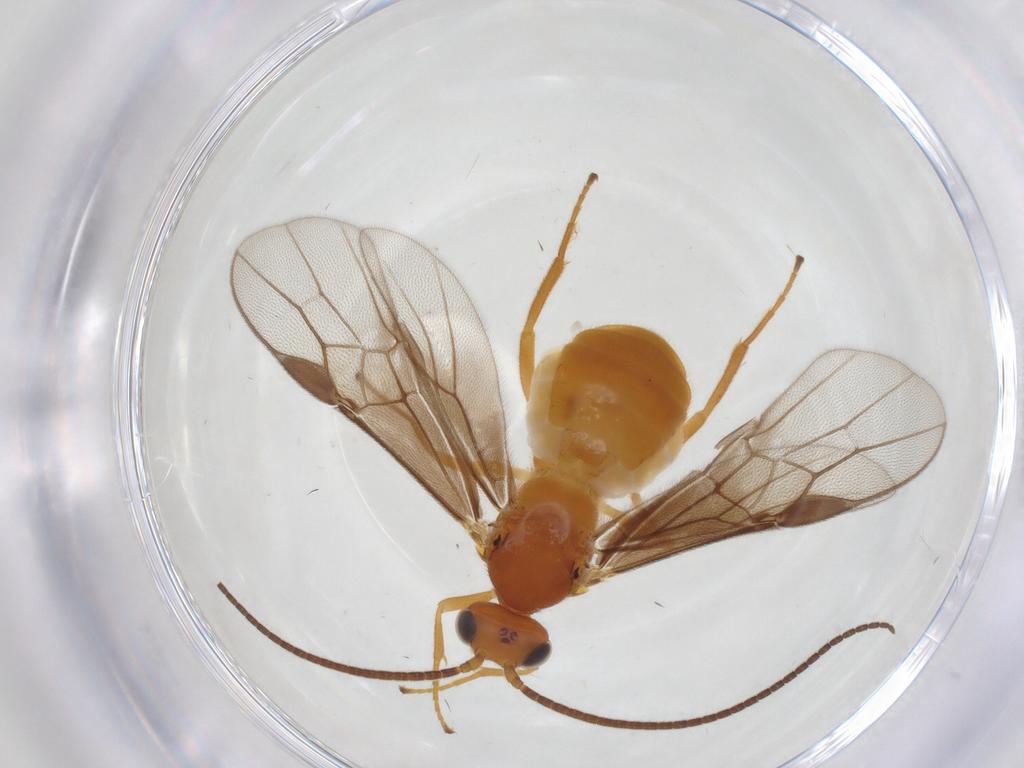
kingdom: Animalia
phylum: Arthropoda
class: Insecta
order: Hymenoptera
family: Braconidae
